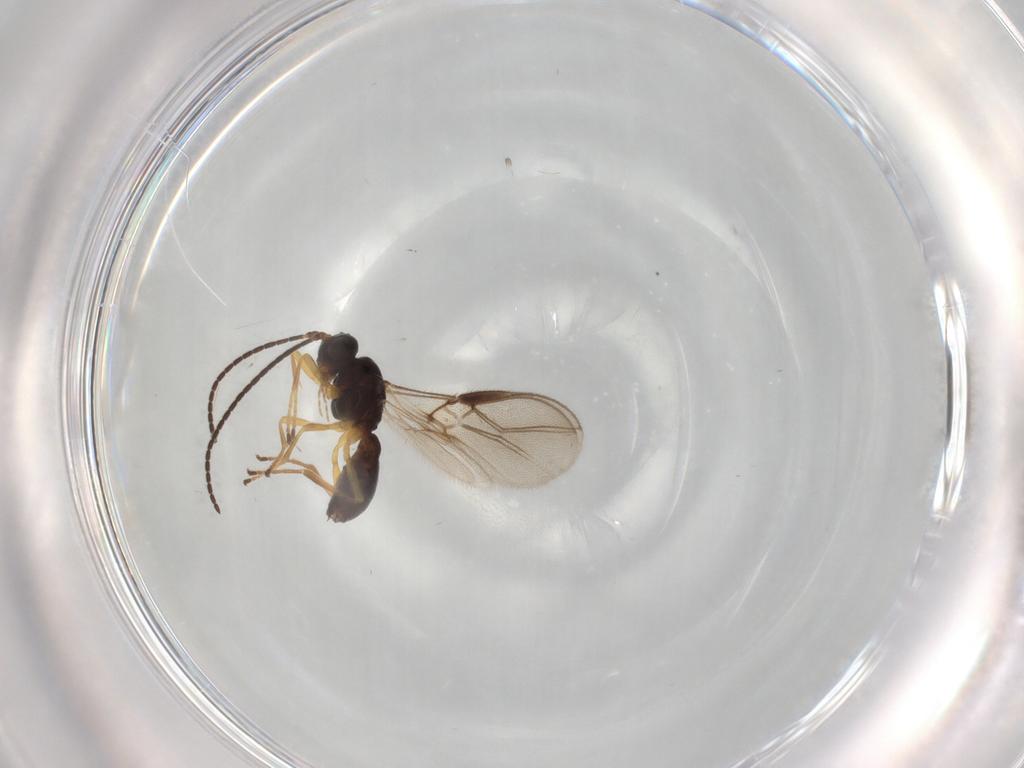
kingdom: Animalia
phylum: Arthropoda
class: Insecta
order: Hymenoptera
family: Braconidae
